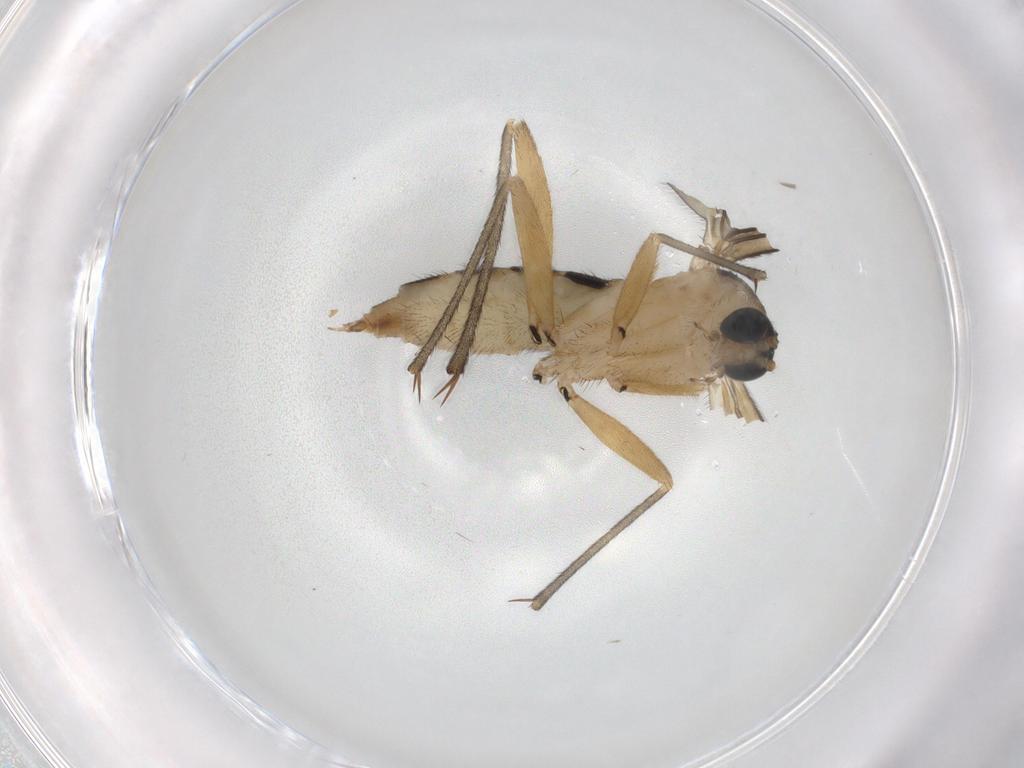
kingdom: Animalia
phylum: Arthropoda
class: Insecta
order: Diptera
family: Sciaridae
